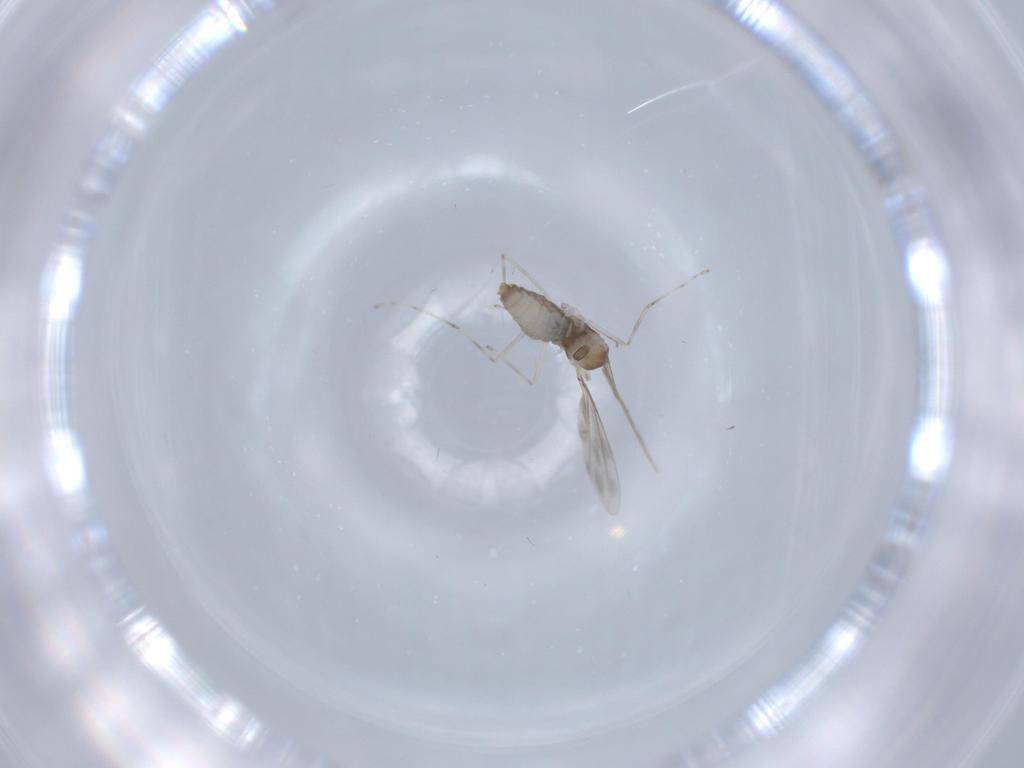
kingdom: Animalia
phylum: Arthropoda
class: Insecta
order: Diptera
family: Cecidomyiidae
